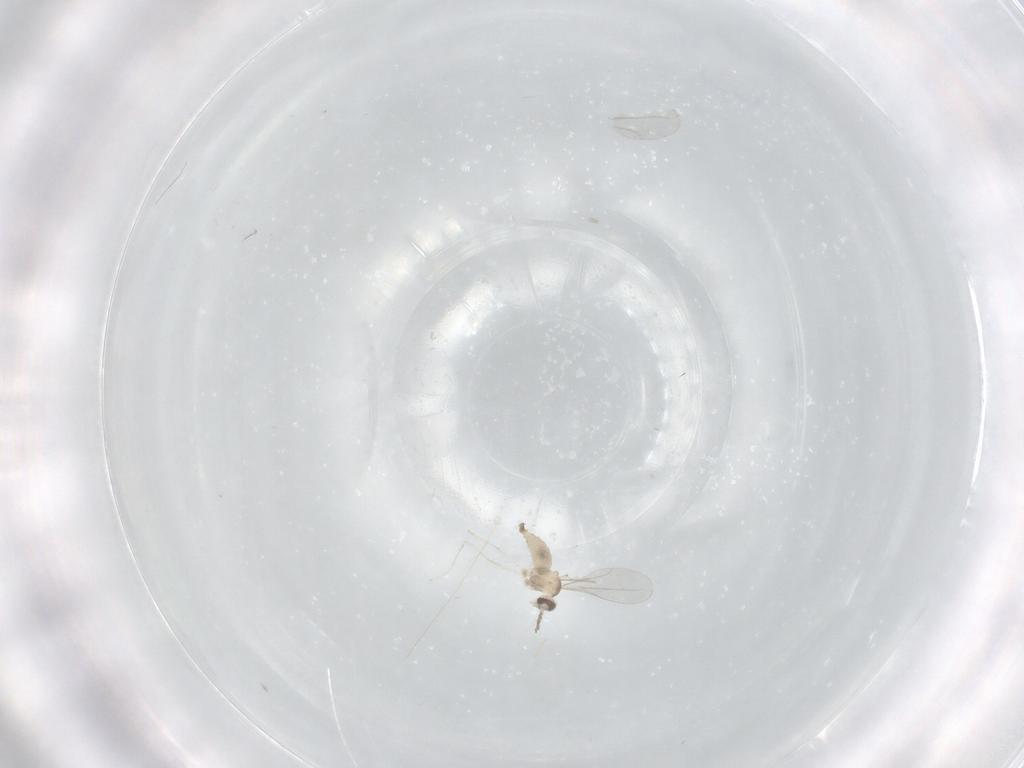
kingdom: Animalia
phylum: Arthropoda
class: Insecta
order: Diptera
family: Cecidomyiidae
